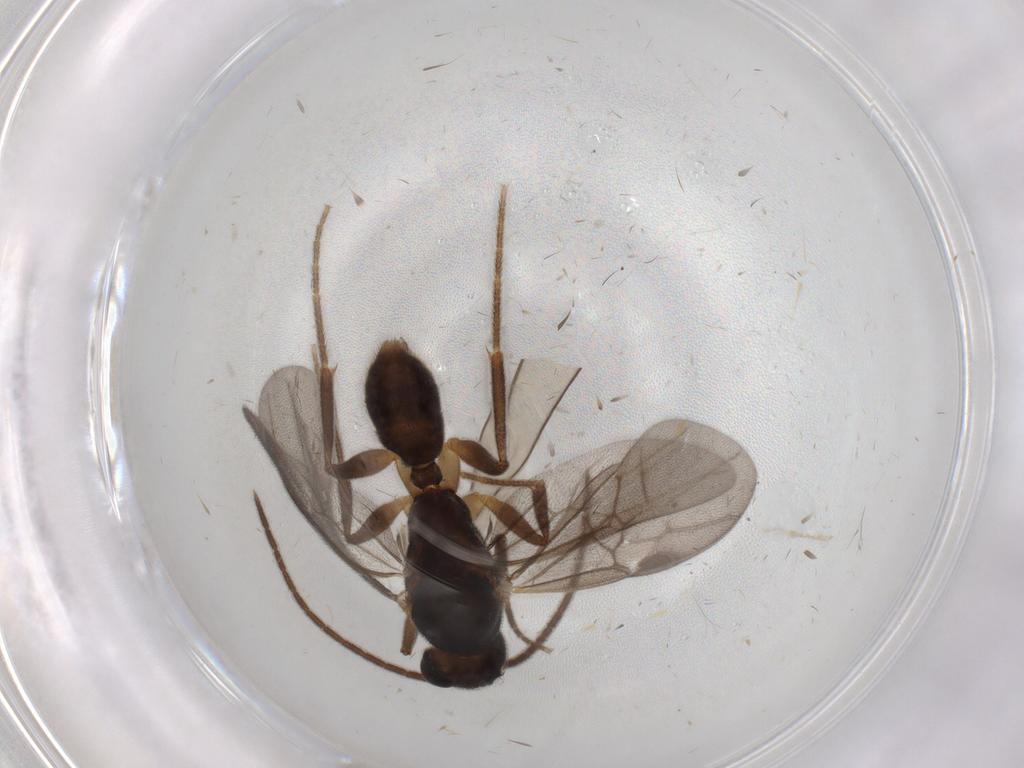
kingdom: Animalia
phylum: Arthropoda
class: Insecta
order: Hymenoptera
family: Formicidae
